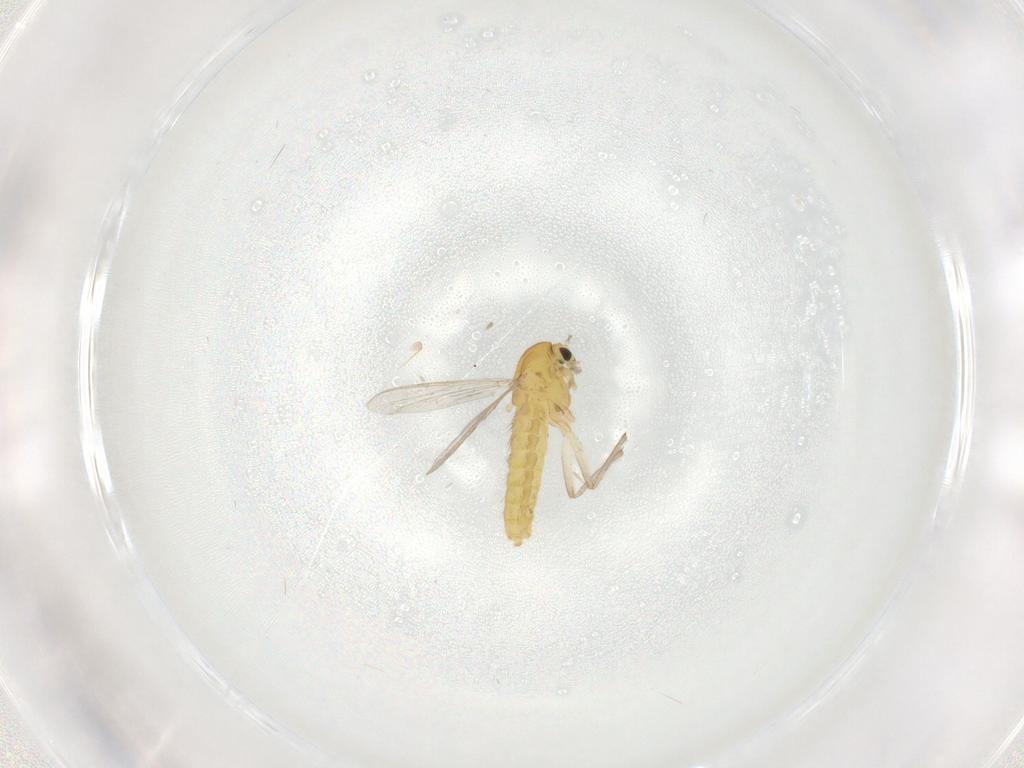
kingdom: Animalia
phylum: Arthropoda
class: Insecta
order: Diptera
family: Chironomidae
